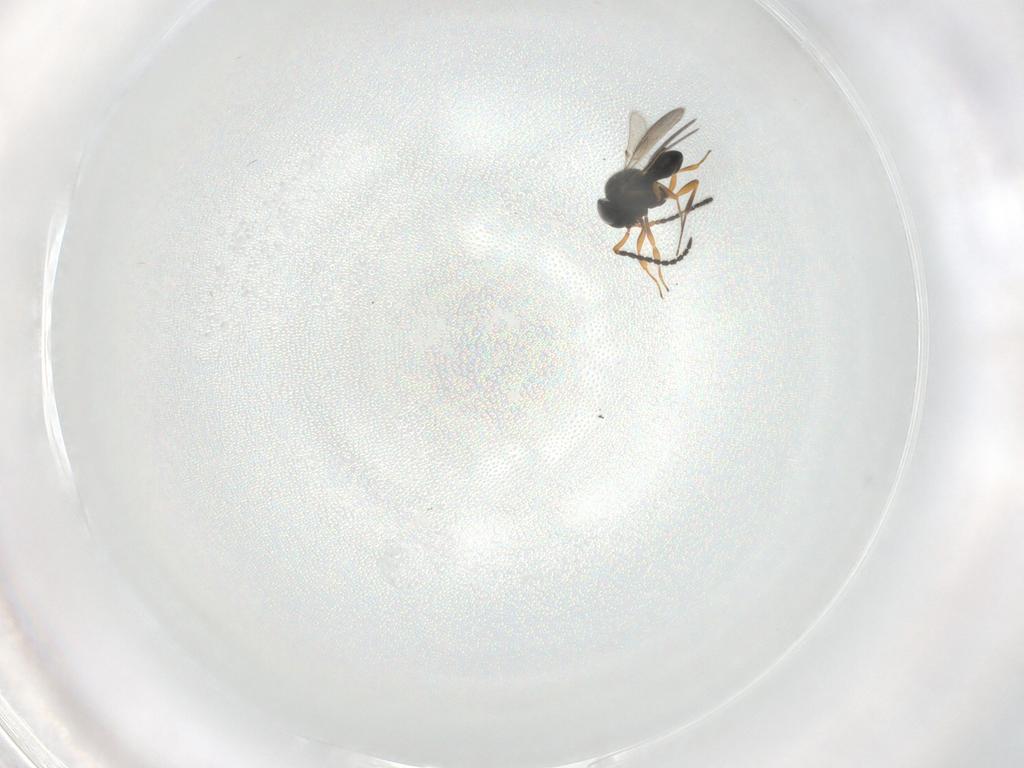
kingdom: Animalia
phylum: Arthropoda
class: Insecta
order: Hymenoptera
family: Scelionidae
